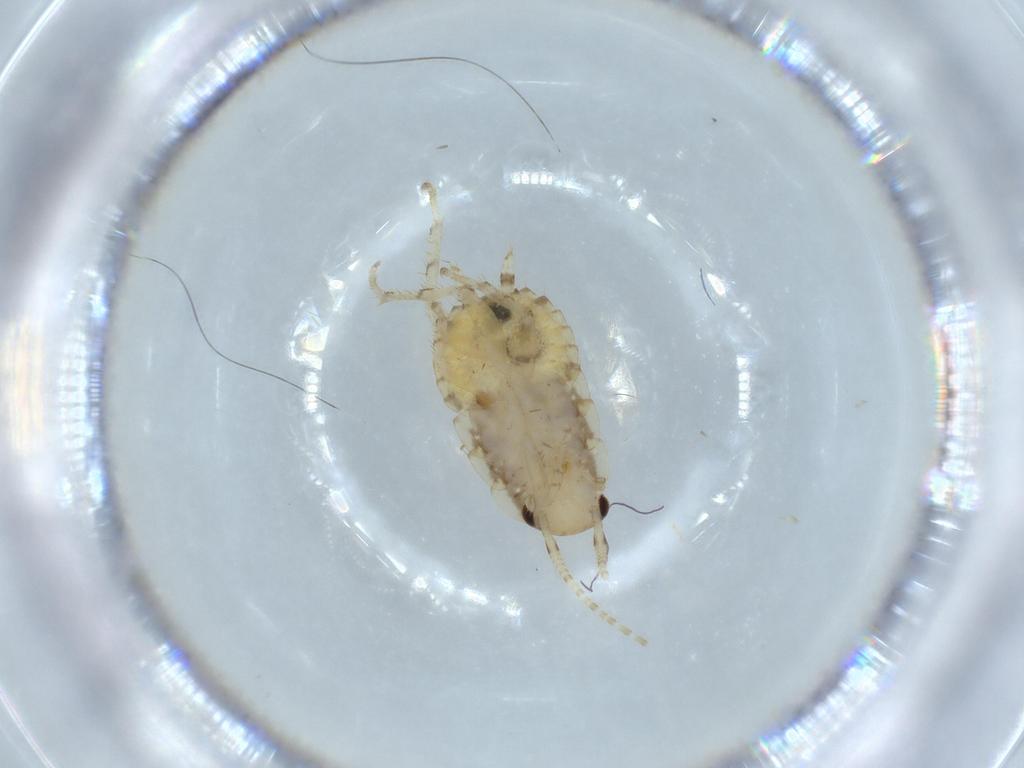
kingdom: Animalia
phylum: Arthropoda
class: Insecta
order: Blattodea
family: Ectobiidae
